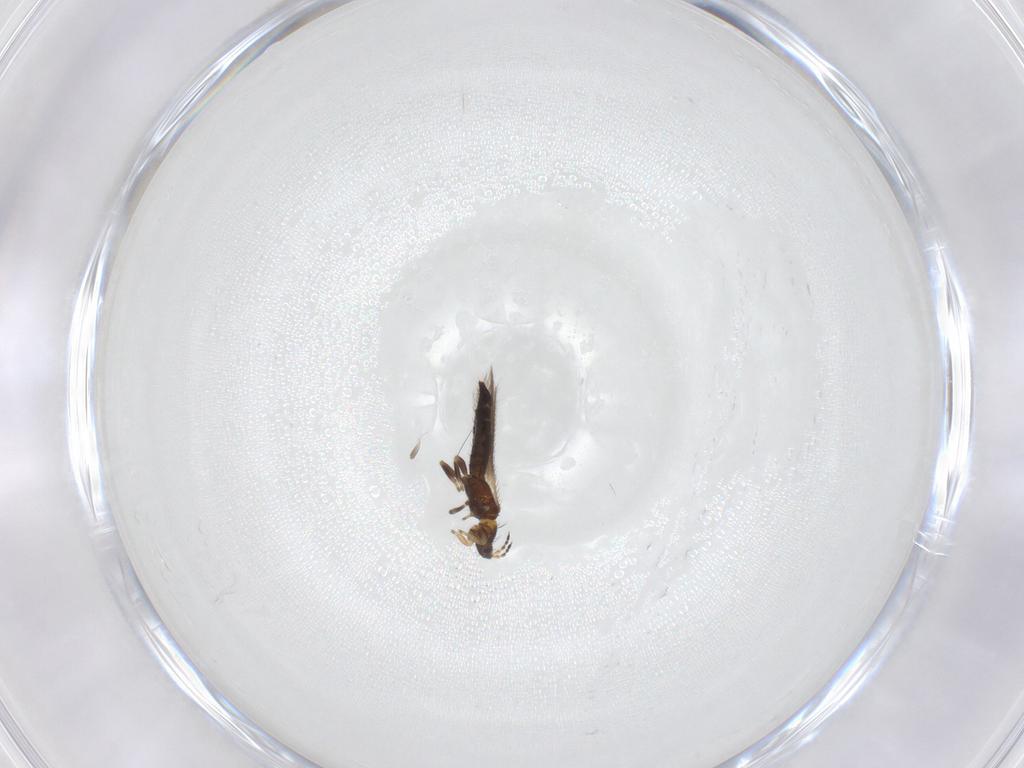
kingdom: Animalia
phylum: Arthropoda
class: Insecta
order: Thysanoptera
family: Thripidae
